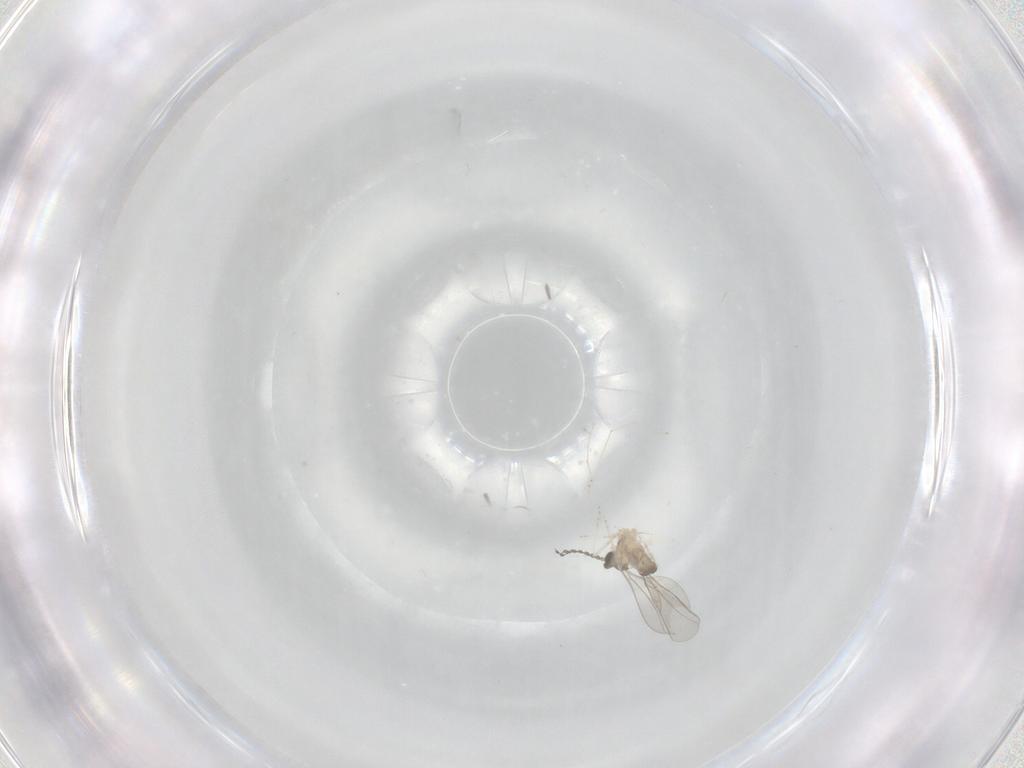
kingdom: Animalia
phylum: Arthropoda
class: Insecta
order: Diptera
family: Cecidomyiidae
